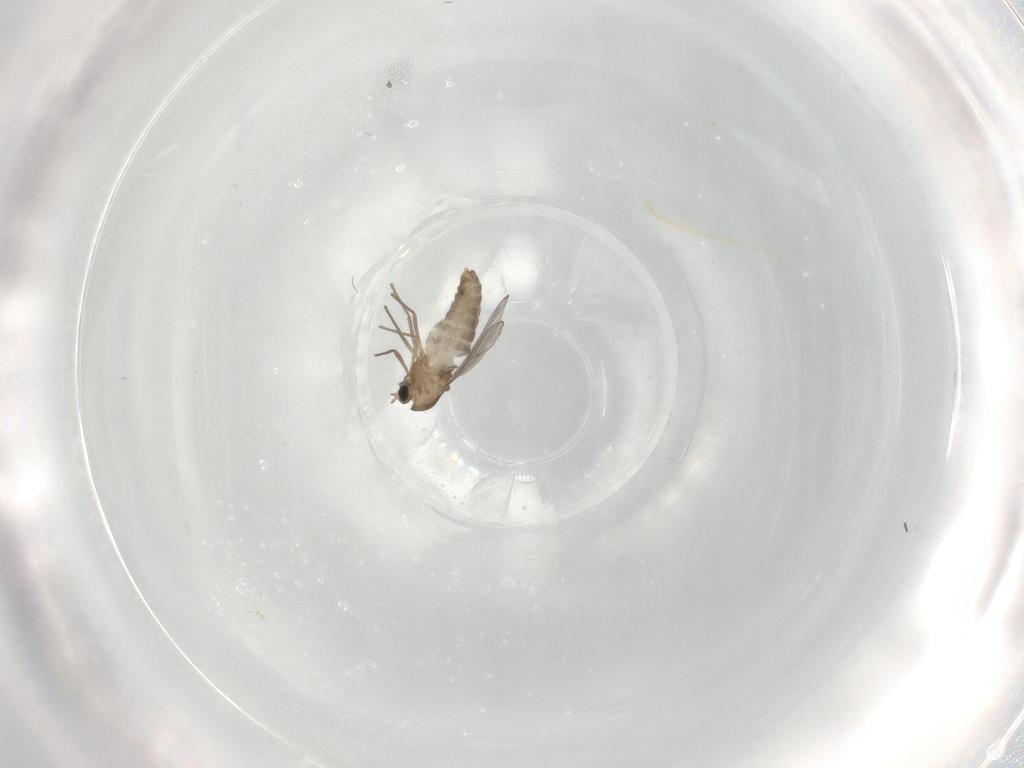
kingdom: Animalia
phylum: Arthropoda
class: Insecta
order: Diptera
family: Chironomidae
